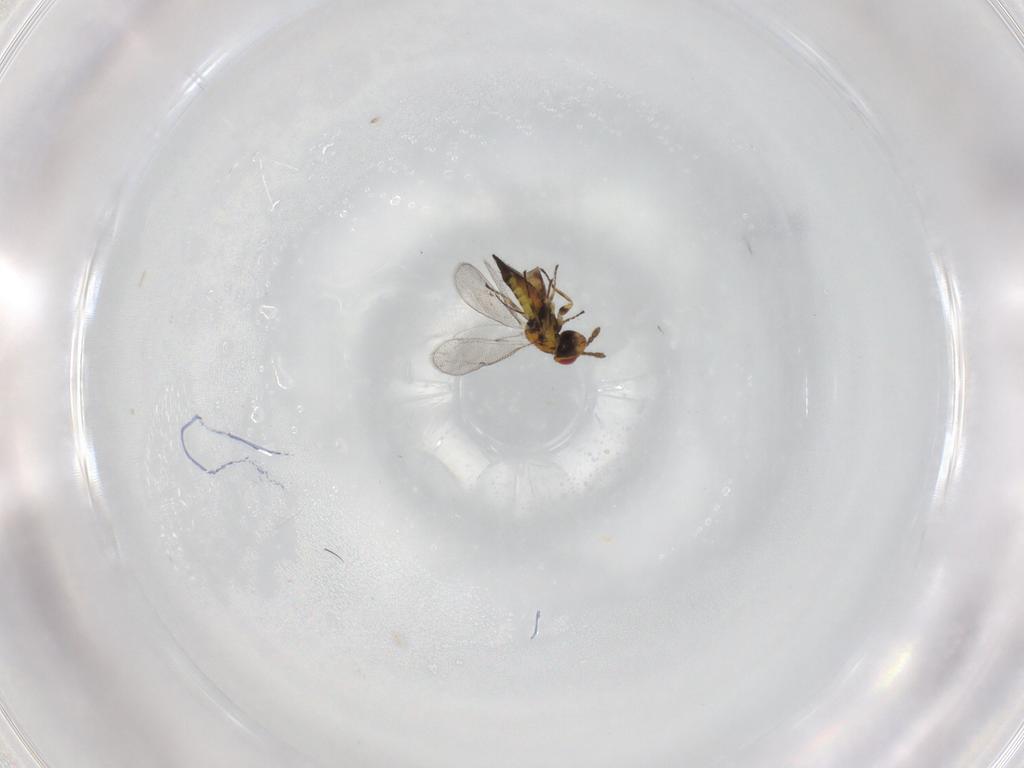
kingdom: Animalia
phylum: Arthropoda
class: Insecta
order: Hymenoptera
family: Eulophidae
